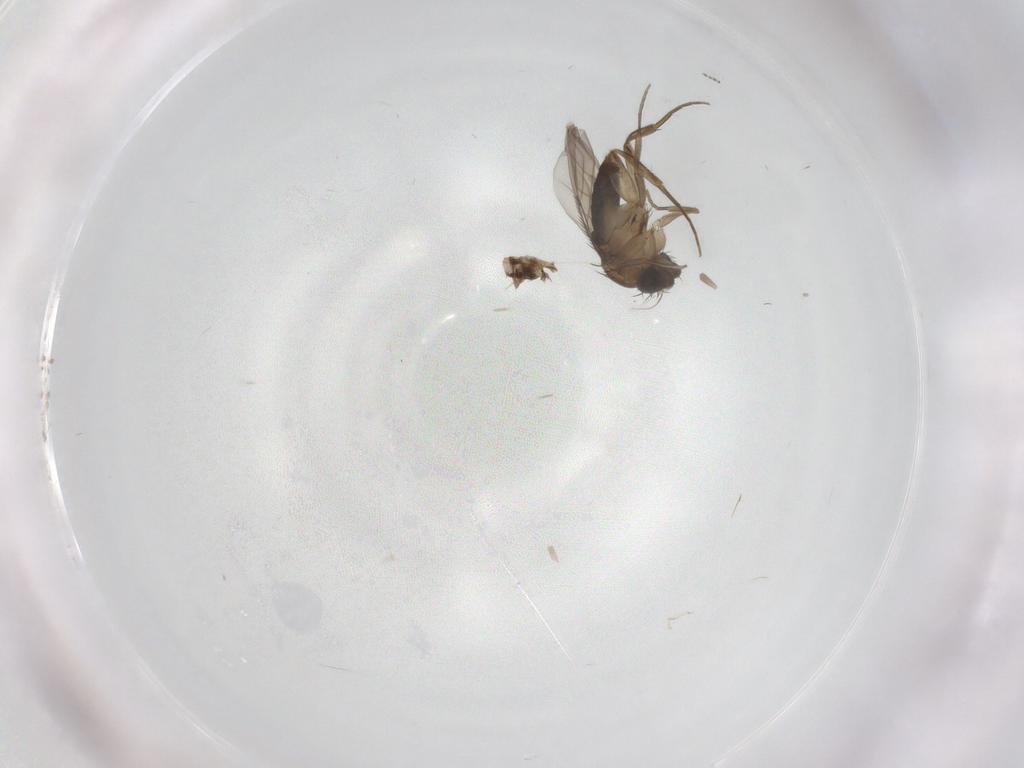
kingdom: Animalia
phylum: Arthropoda
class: Insecta
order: Diptera
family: Phoridae
